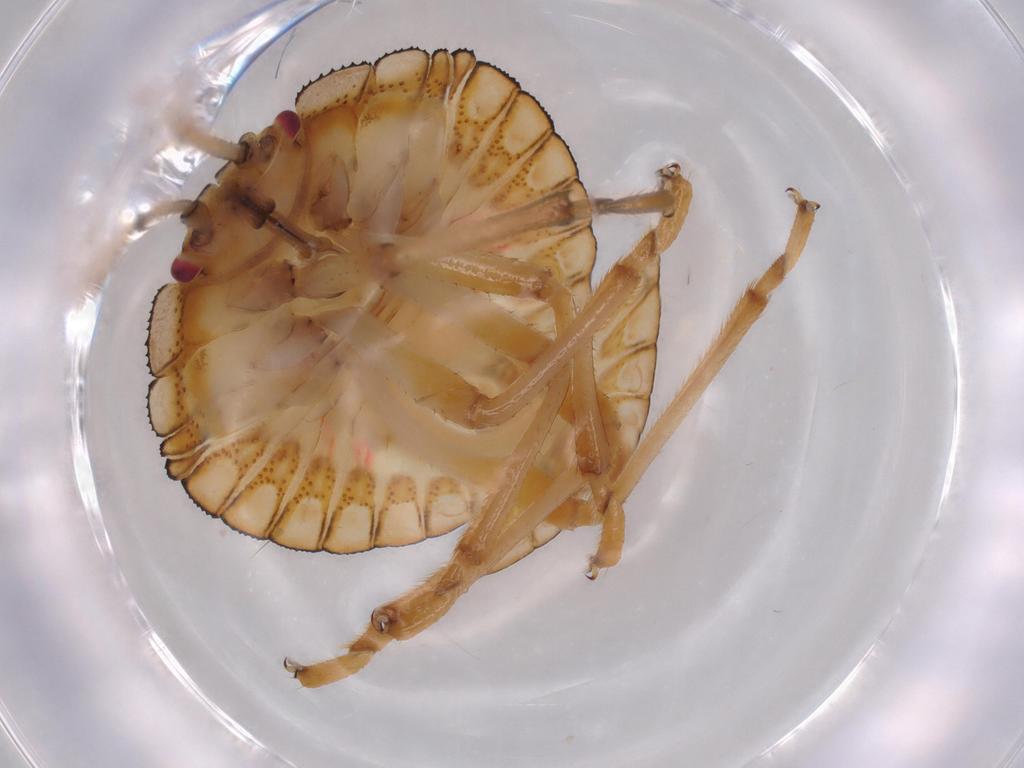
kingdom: Animalia
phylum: Arthropoda
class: Insecta
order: Hemiptera
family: Pentatomidae
